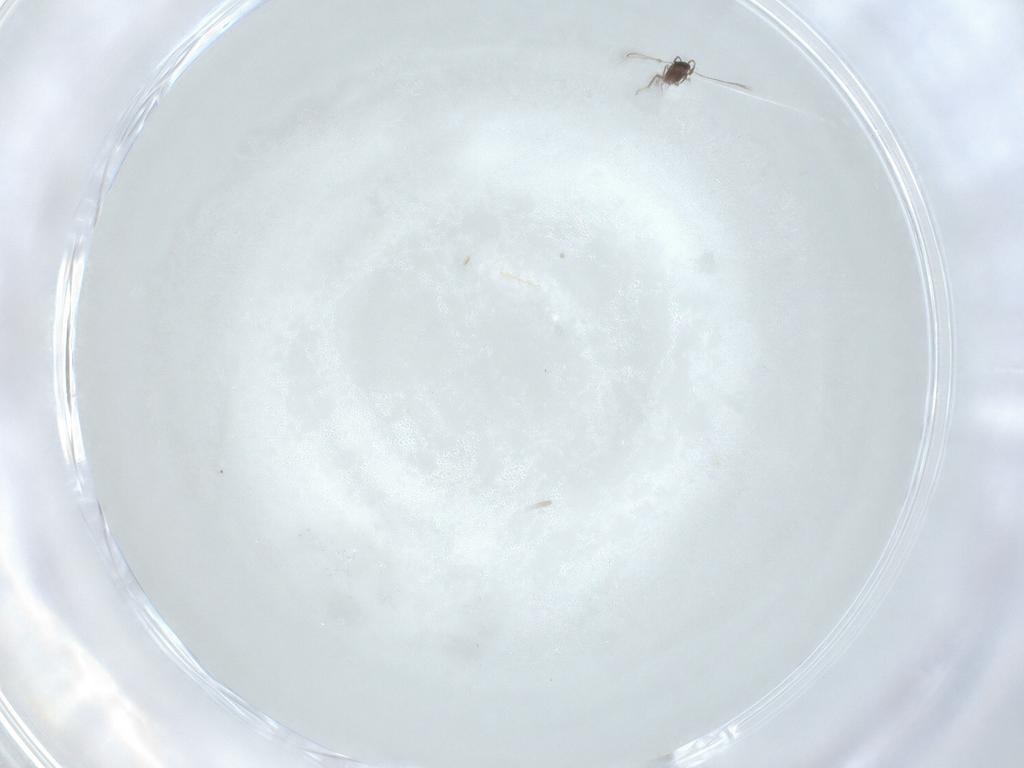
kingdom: Animalia
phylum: Arthropoda
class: Insecta
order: Hymenoptera
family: Mymaridae
